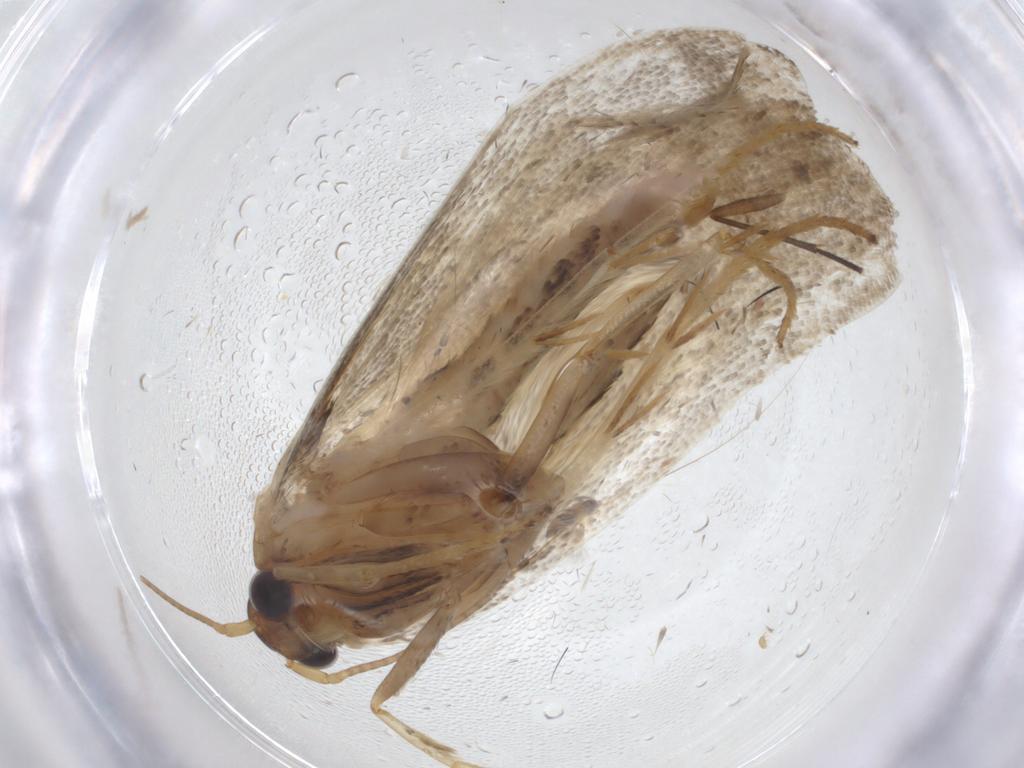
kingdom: Animalia
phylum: Arthropoda
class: Insecta
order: Lepidoptera
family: Depressariidae
